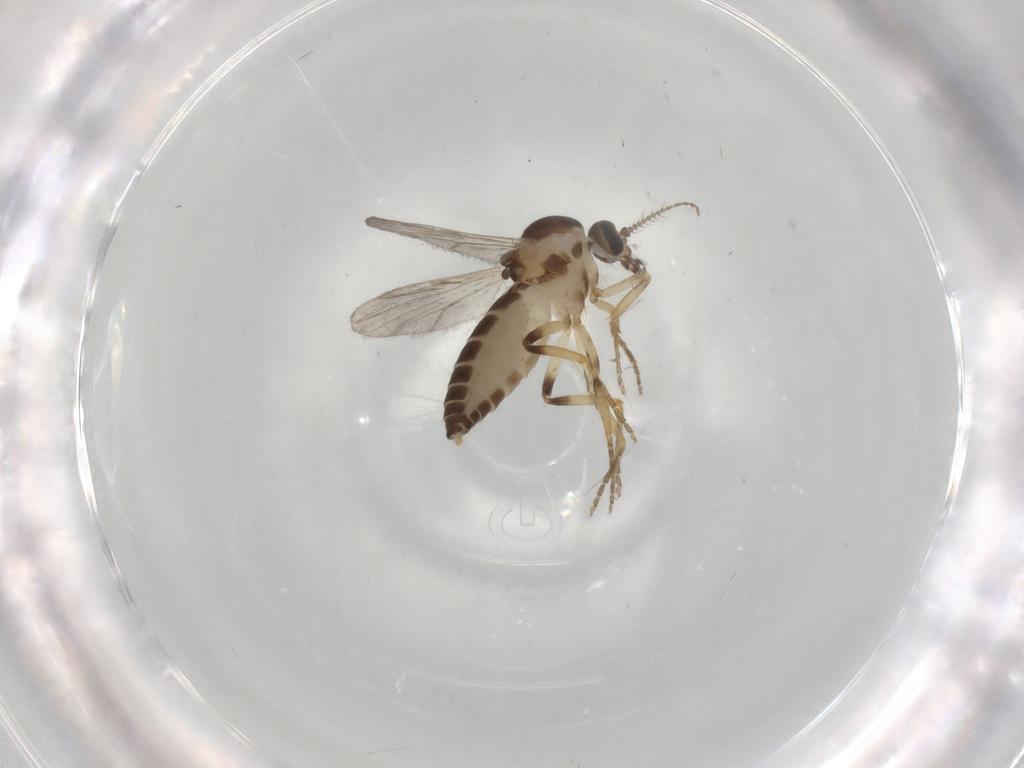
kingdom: Animalia
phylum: Arthropoda
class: Insecta
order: Diptera
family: Ceratopogonidae
